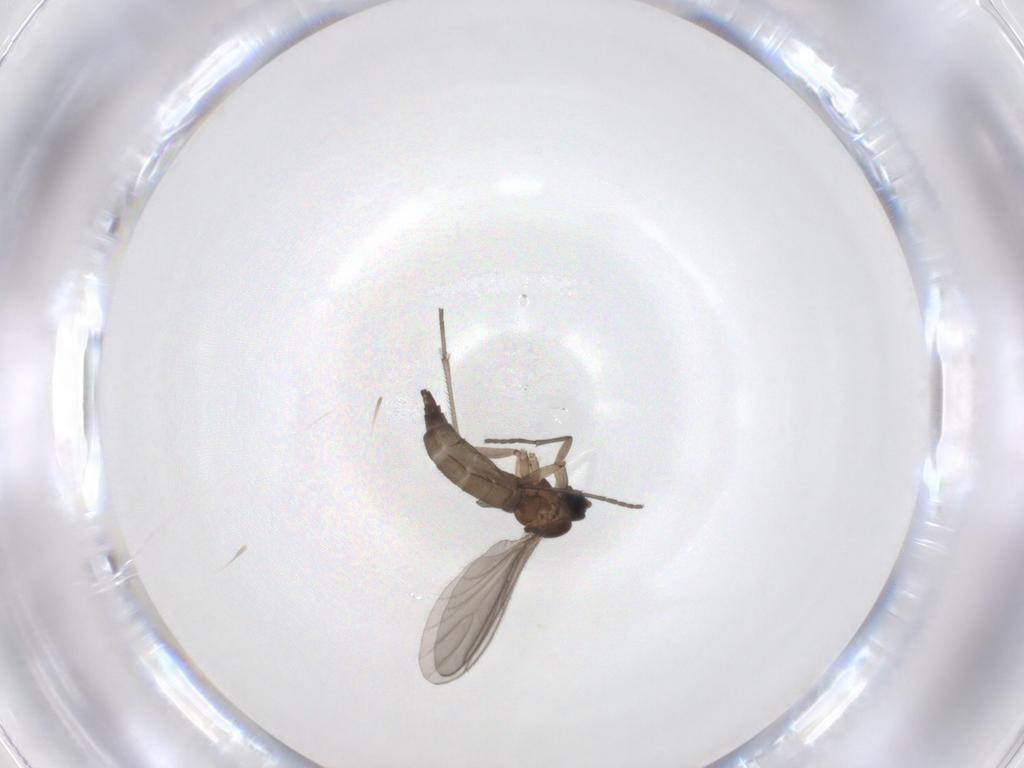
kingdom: Animalia
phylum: Arthropoda
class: Insecta
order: Diptera
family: Sciaridae
